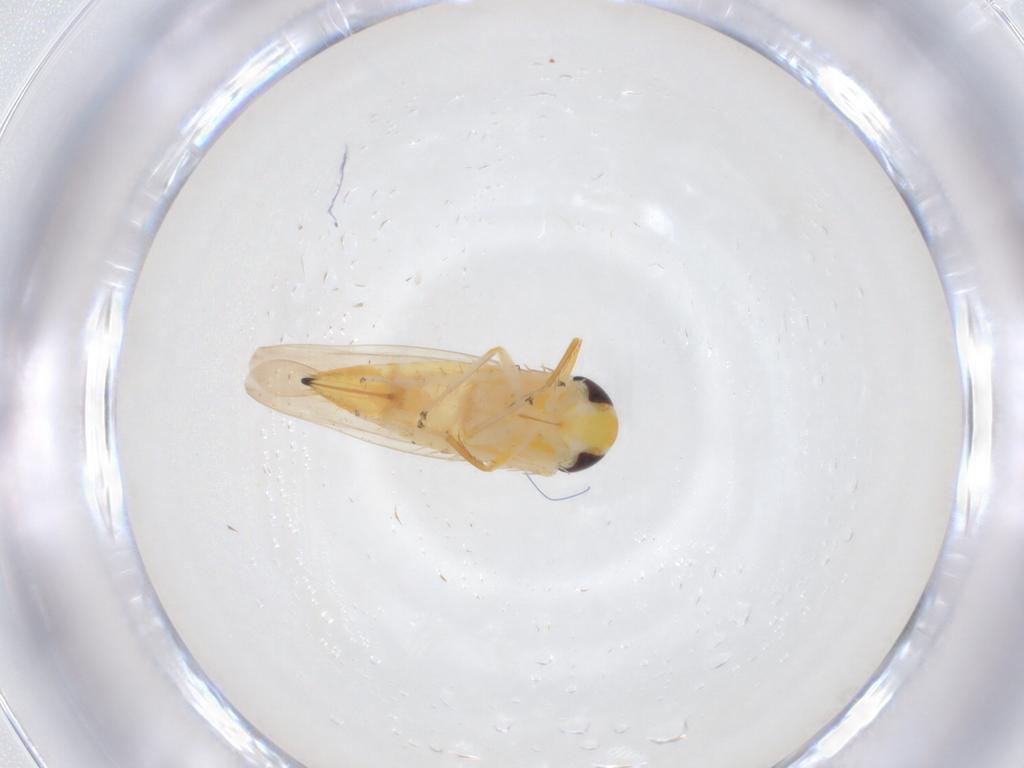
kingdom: Animalia
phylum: Arthropoda
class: Insecta
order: Hemiptera
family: Cicadellidae
